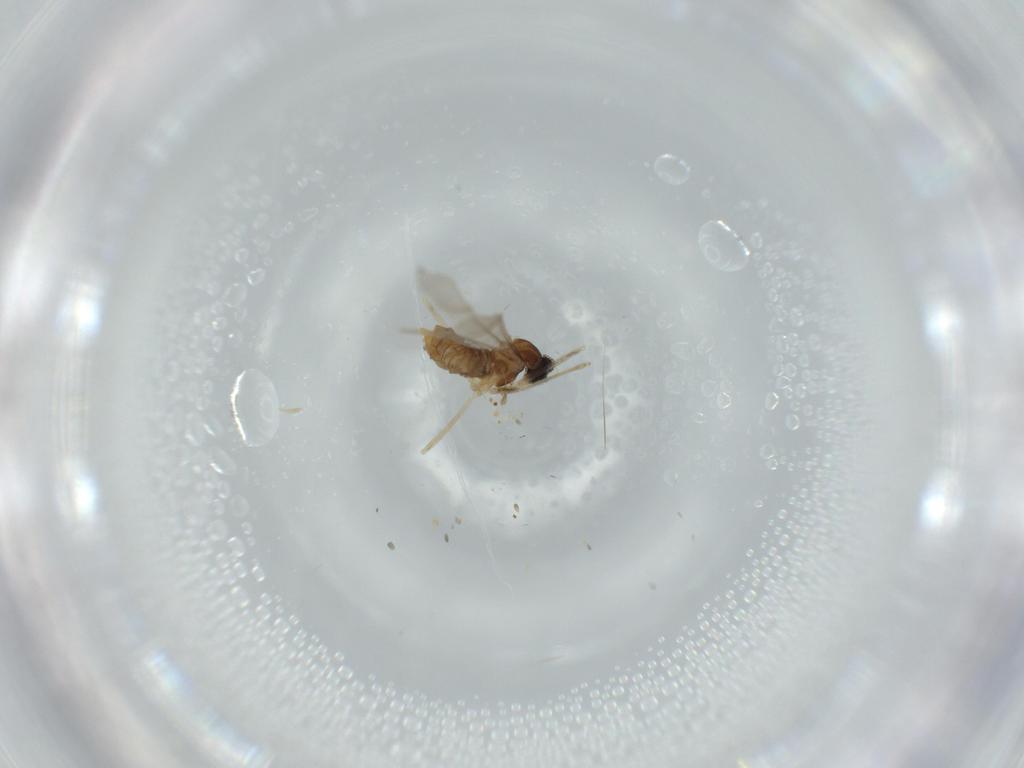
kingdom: Animalia
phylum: Arthropoda
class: Insecta
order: Diptera
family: Cecidomyiidae
